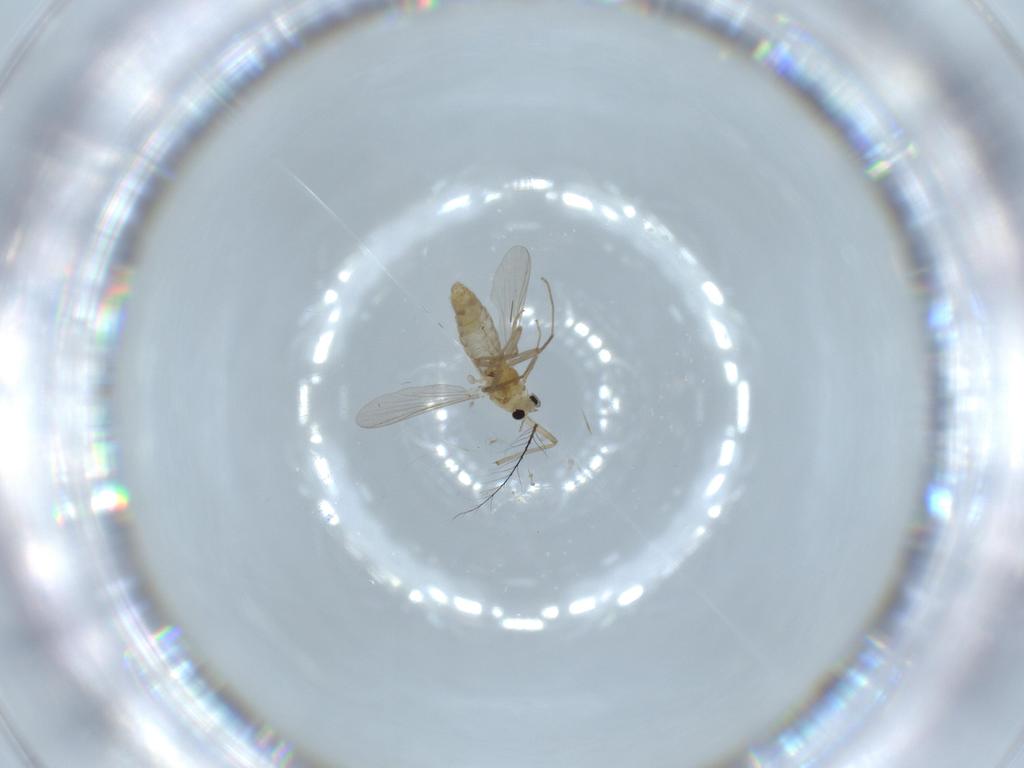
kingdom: Animalia
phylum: Arthropoda
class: Insecta
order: Diptera
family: Chironomidae
